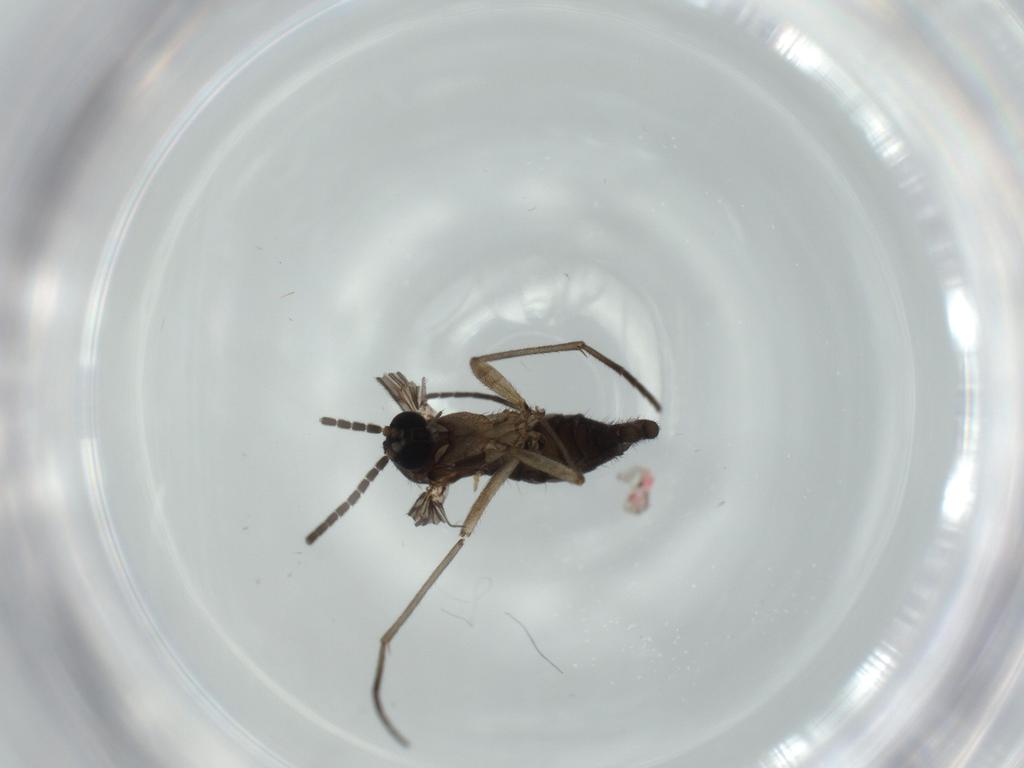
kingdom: Animalia
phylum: Arthropoda
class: Insecta
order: Diptera
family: Sciaridae
